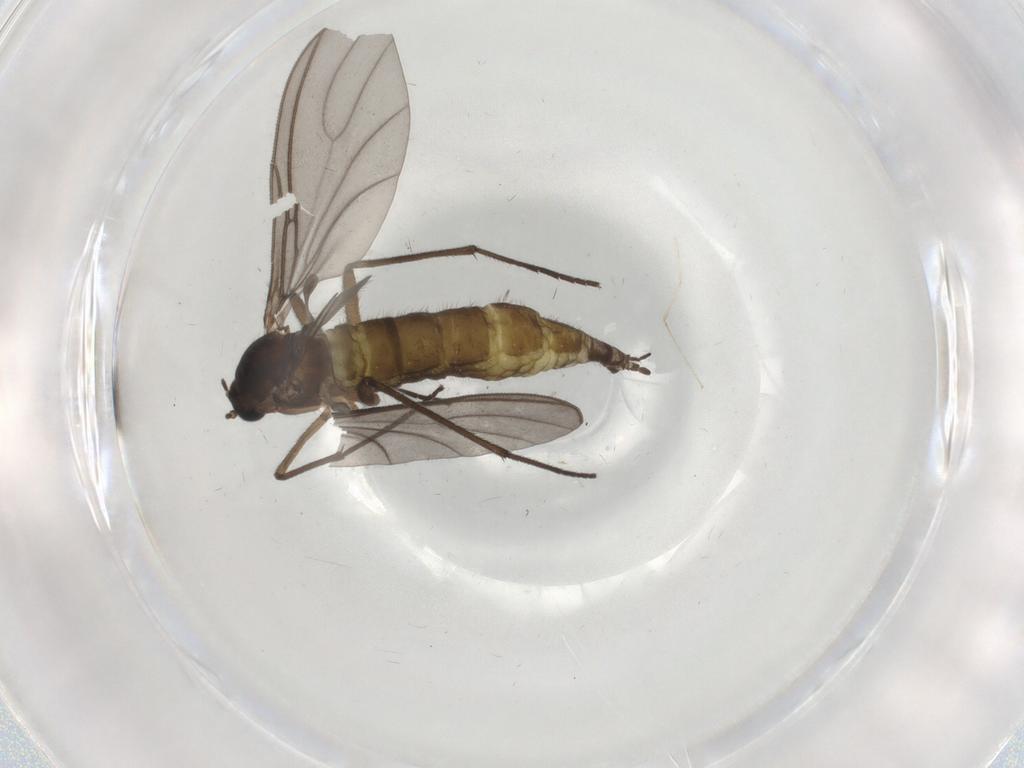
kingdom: Animalia
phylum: Arthropoda
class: Insecta
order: Diptera
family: Sciaridae
